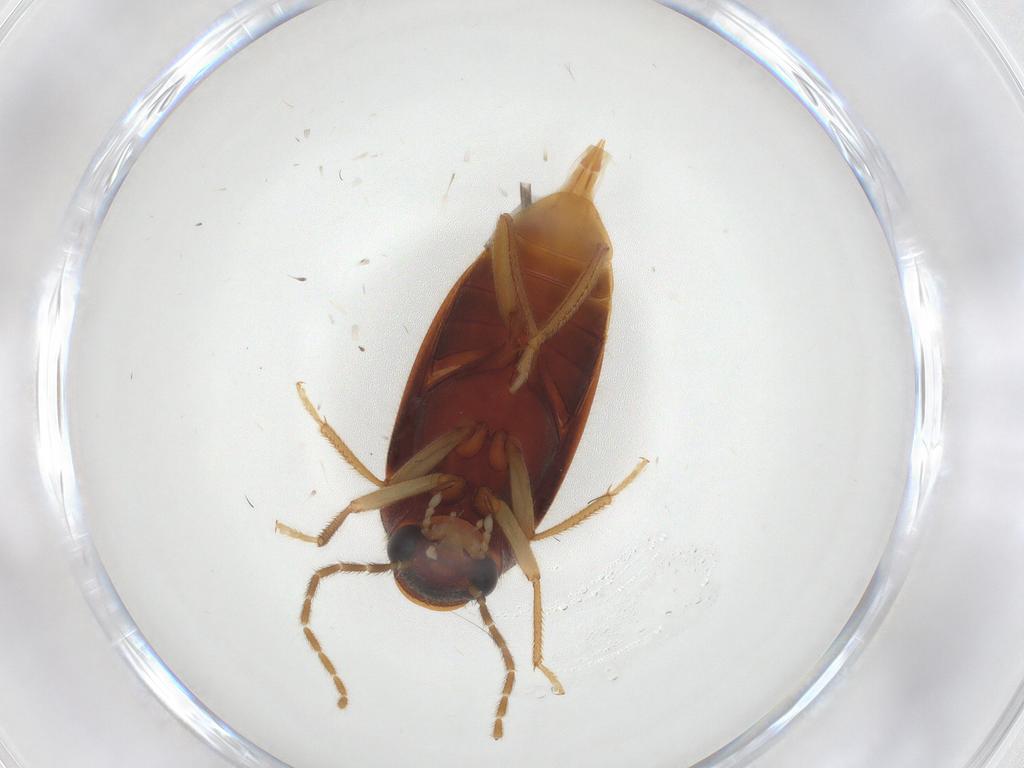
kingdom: Animalia
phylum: Arthropoda
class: Insecta
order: Coleoptera
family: Ptilodactylidae
